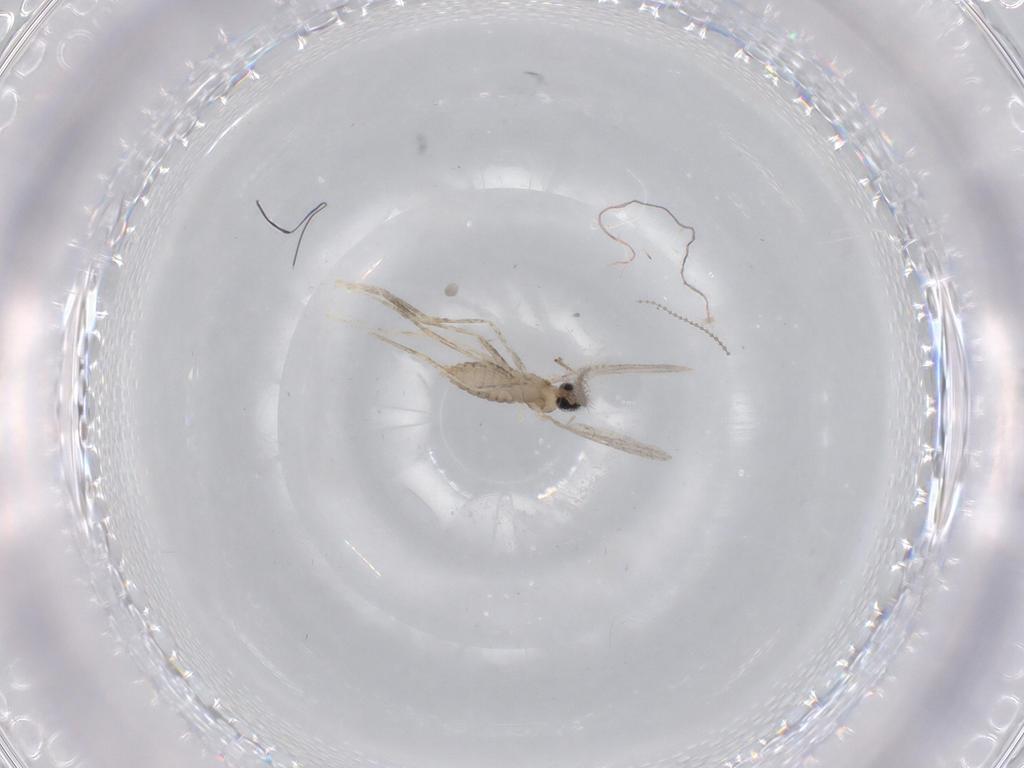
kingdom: Animalia
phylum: Arthropoda
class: Insecta
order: Diptera
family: Cecidomyiidae
